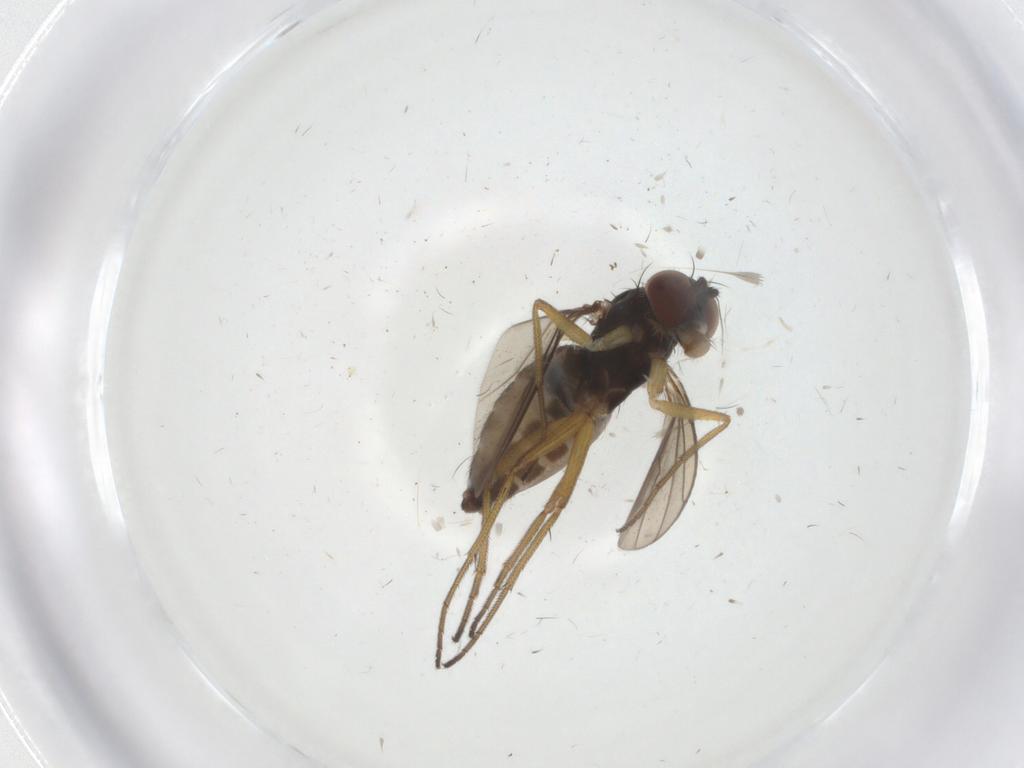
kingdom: Animalia
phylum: Arthropoda
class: Insecta
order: Diptera
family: Dolichopodidae
